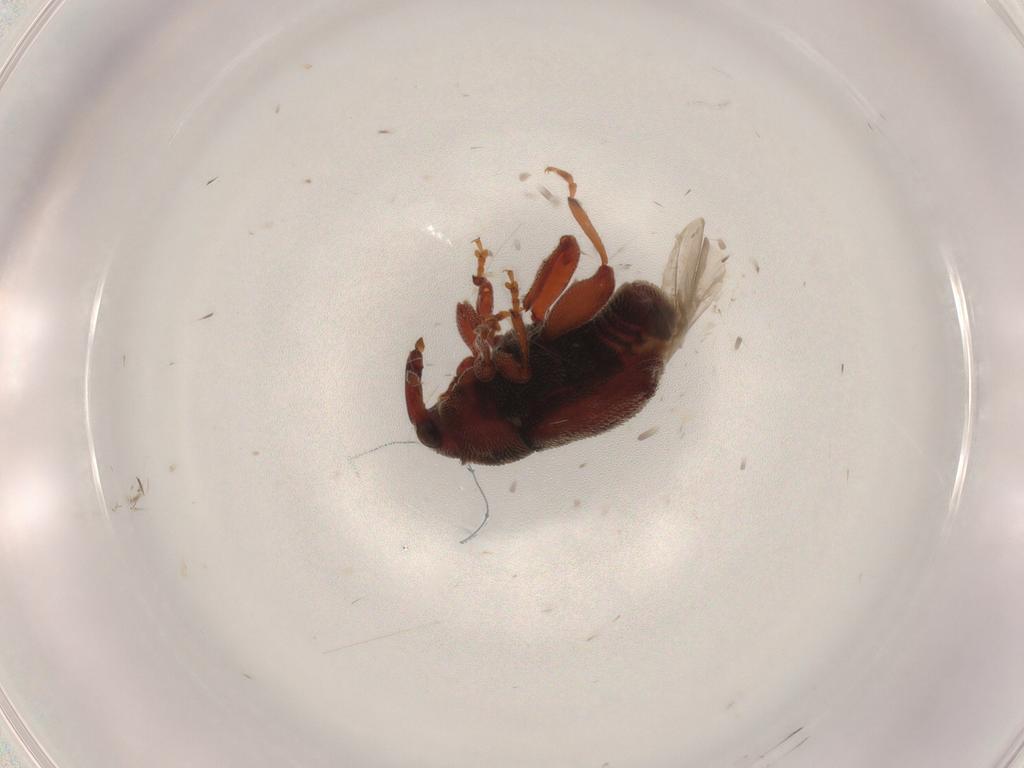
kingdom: Animalia
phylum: Arthropoda
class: Insecta
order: Coleoptera
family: Curculionidae
